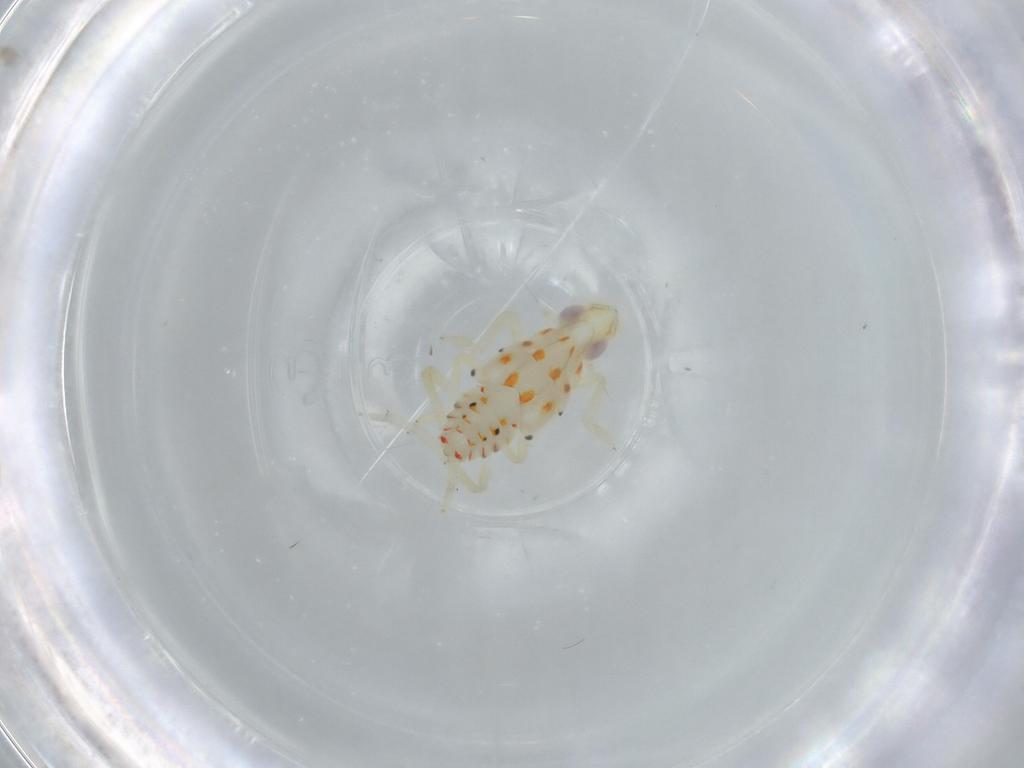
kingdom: Animalia
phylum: Arthropoda
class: Insecta
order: Hemiptera
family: Tropiduchidae
